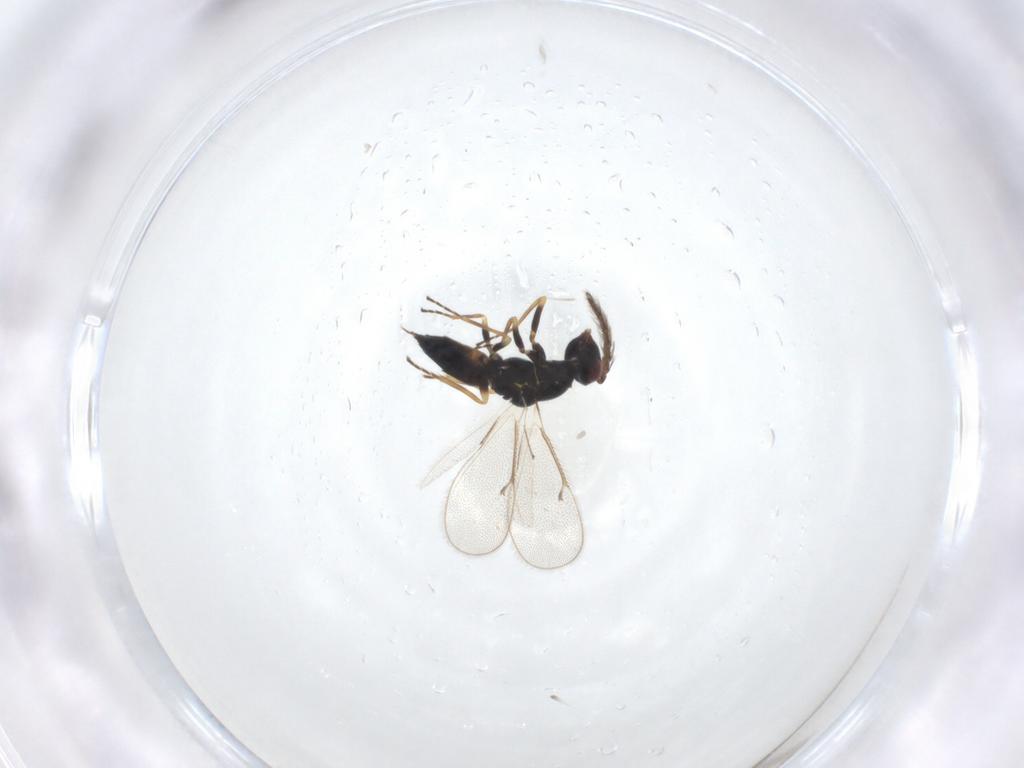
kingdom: Animalia
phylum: Arthropoda
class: Insecta
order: Hymenoptera
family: Eulophidae
